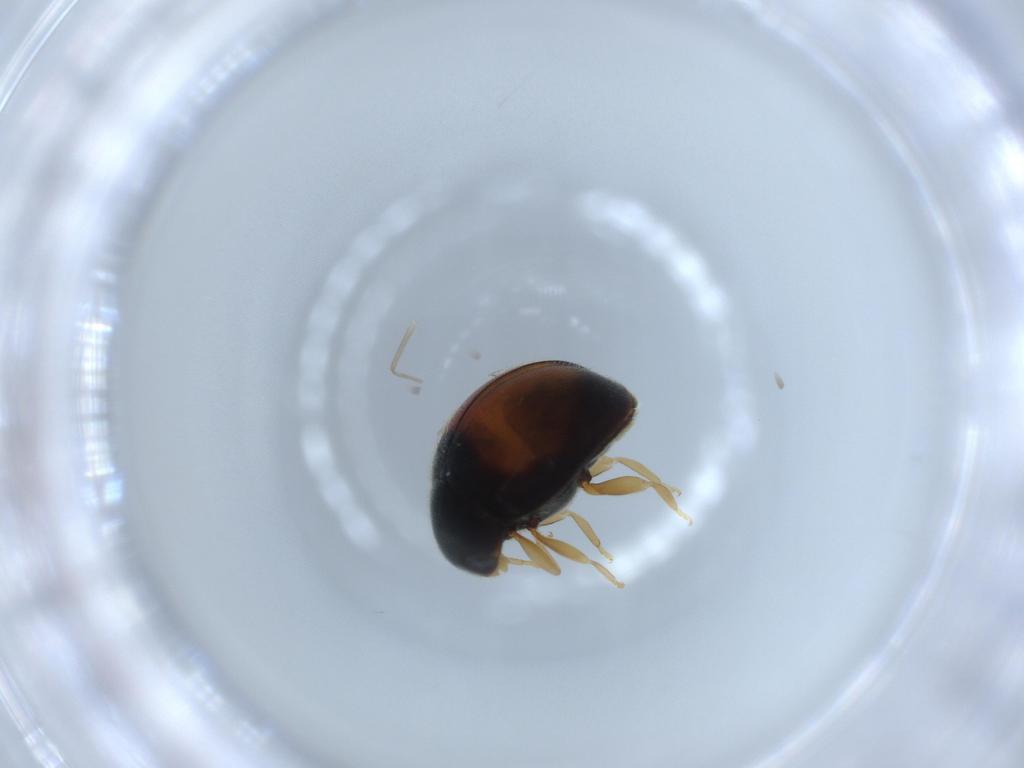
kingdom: Animalia
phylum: Arthropoda
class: Insecta
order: Coleoptera
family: Coccinellidae
